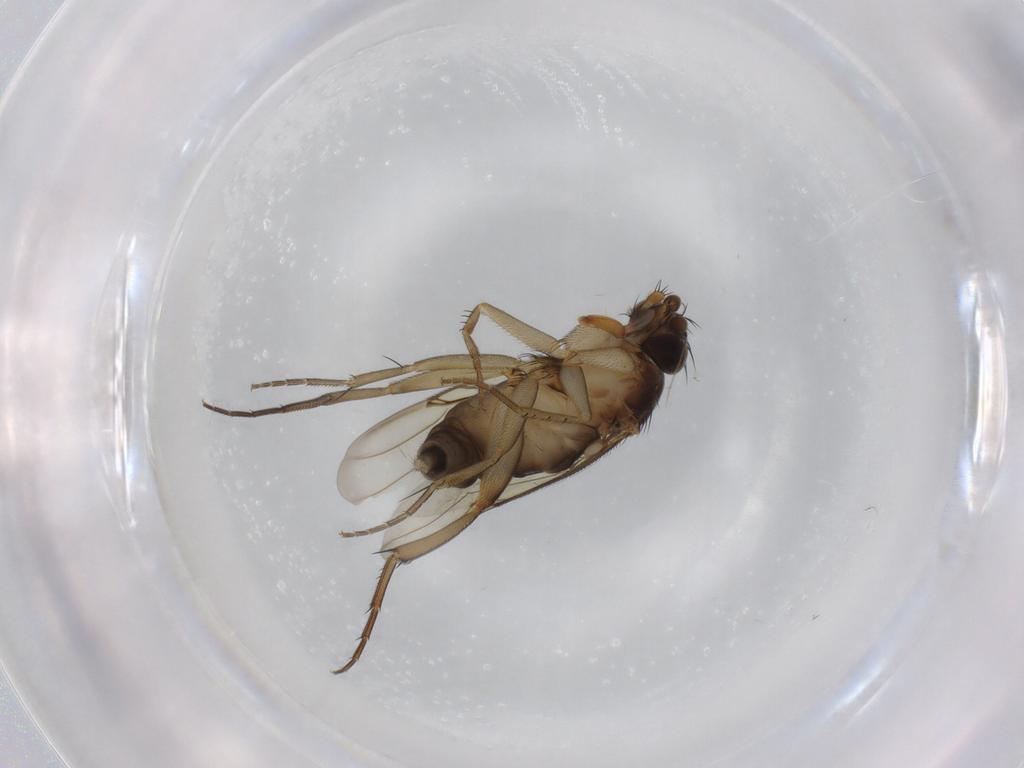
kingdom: Animalia
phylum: Arthropoda
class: Insecta
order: Diptera
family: Phoridae
